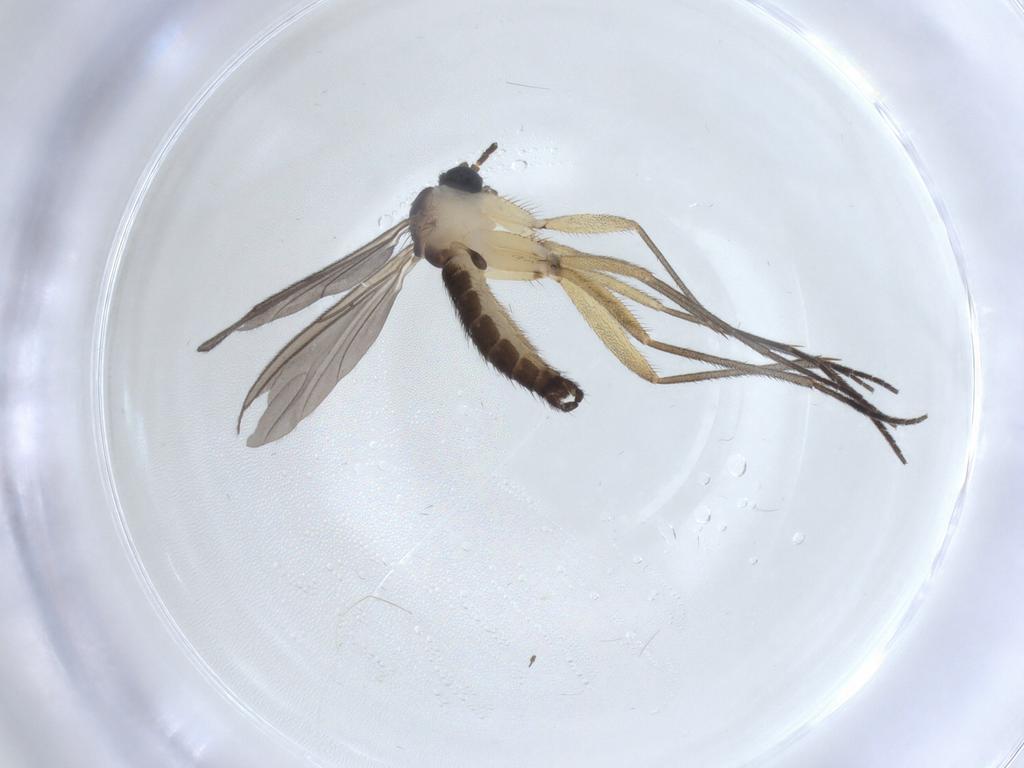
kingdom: Animalia
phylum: Arthropoda
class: Insecta
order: Diptera
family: Sciaridae
